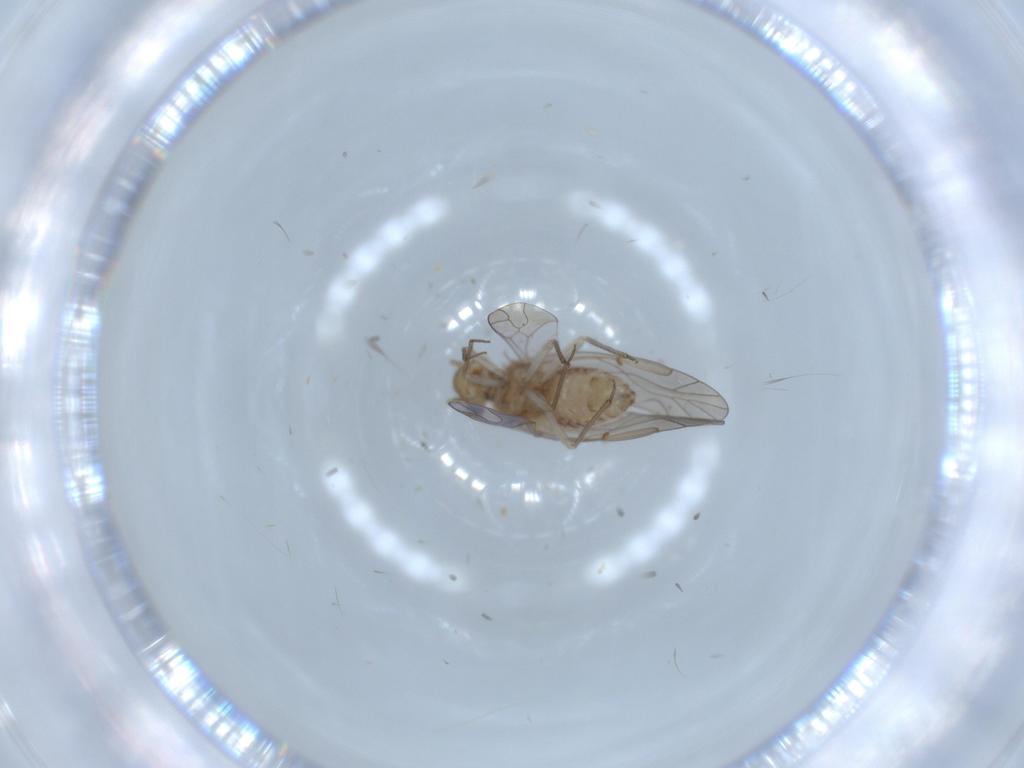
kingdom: Animalia
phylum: Arthropoda
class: Insecta
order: Psocodea
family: Lachesillidae
